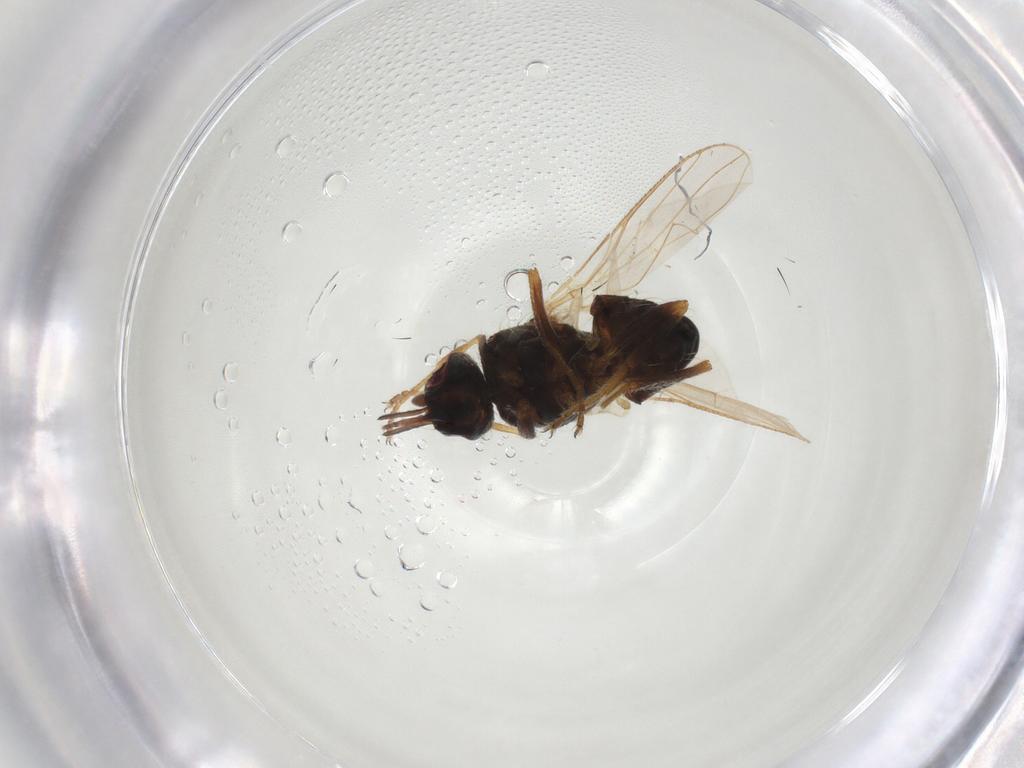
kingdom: Animalia
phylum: Arthropoda
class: Insecta
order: Diptera
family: Muscidae
